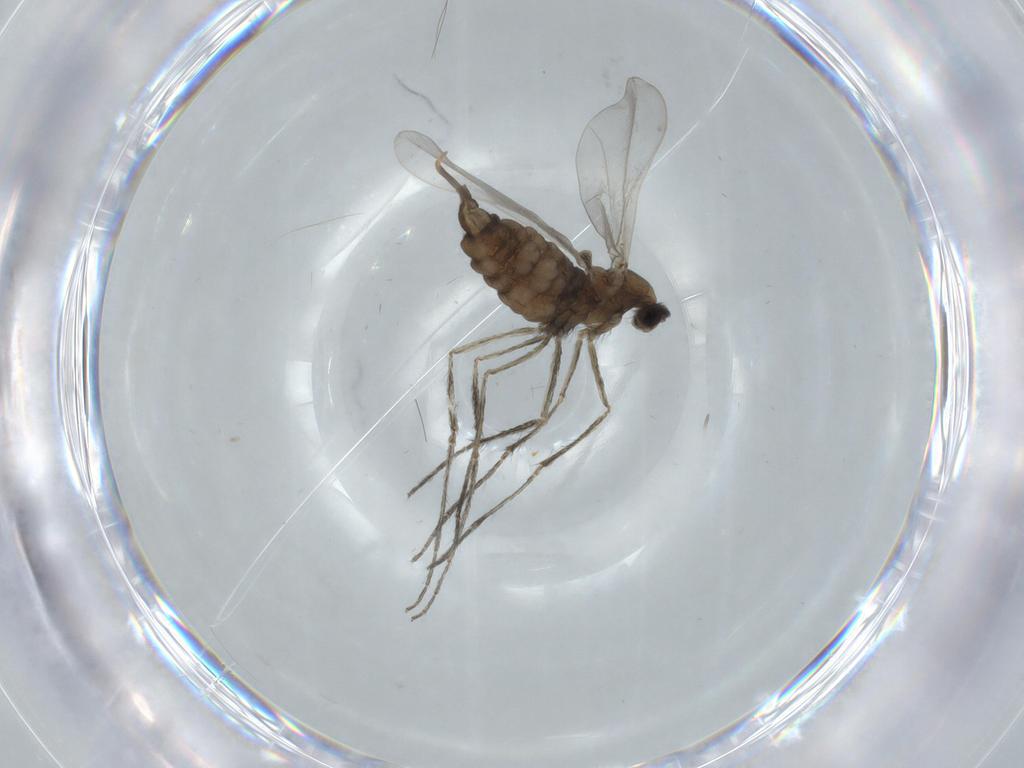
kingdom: Animalia
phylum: Arthropoda
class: Insecta
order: Diptera
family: Cecidomyiidae
